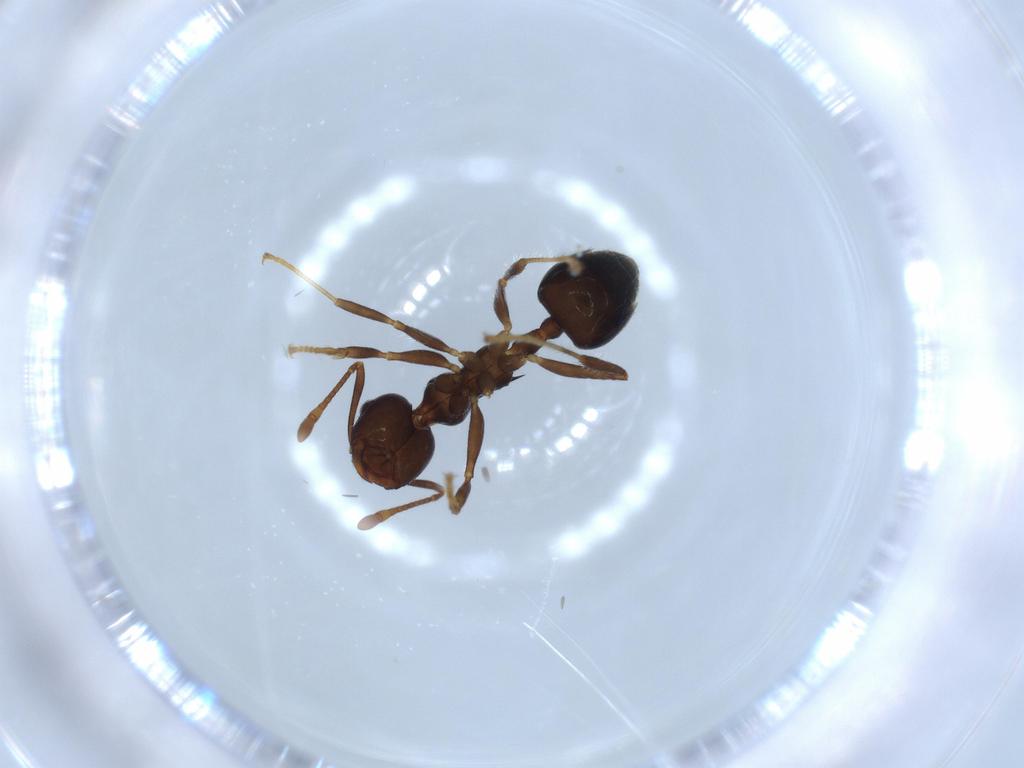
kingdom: Animalia
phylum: Arthropoda
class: Insecta
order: Hymenoptera
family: Formicidae
